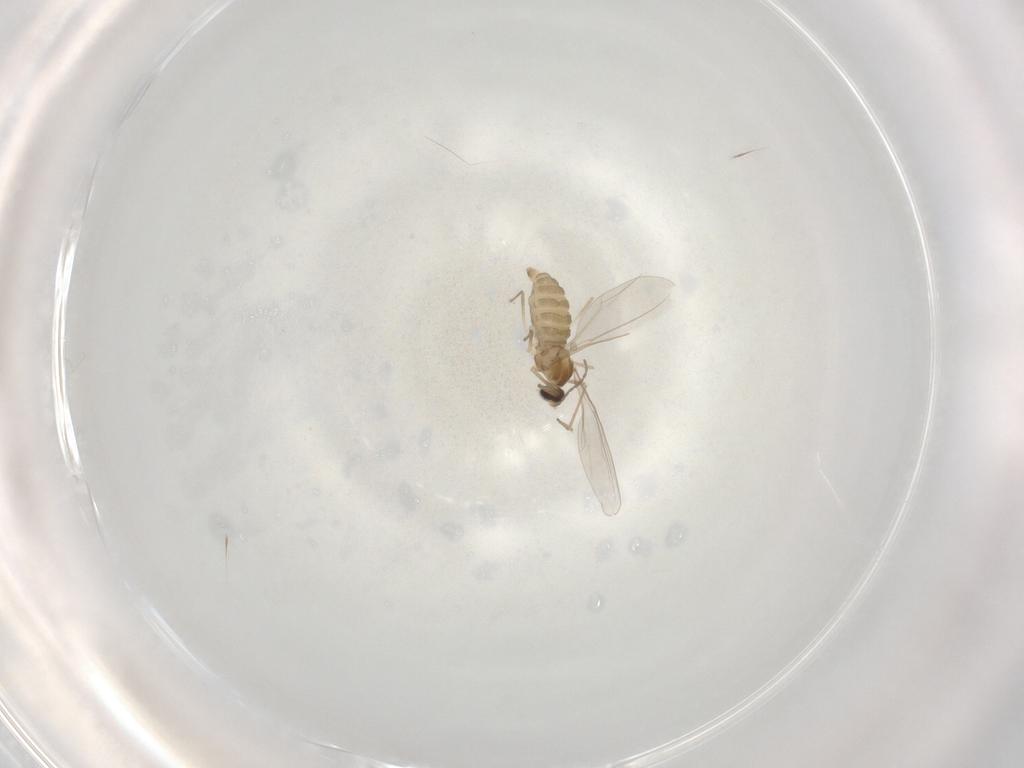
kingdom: Animalia
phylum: Arthropoda
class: Insecta
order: Diptera
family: Cecidomyiidae
